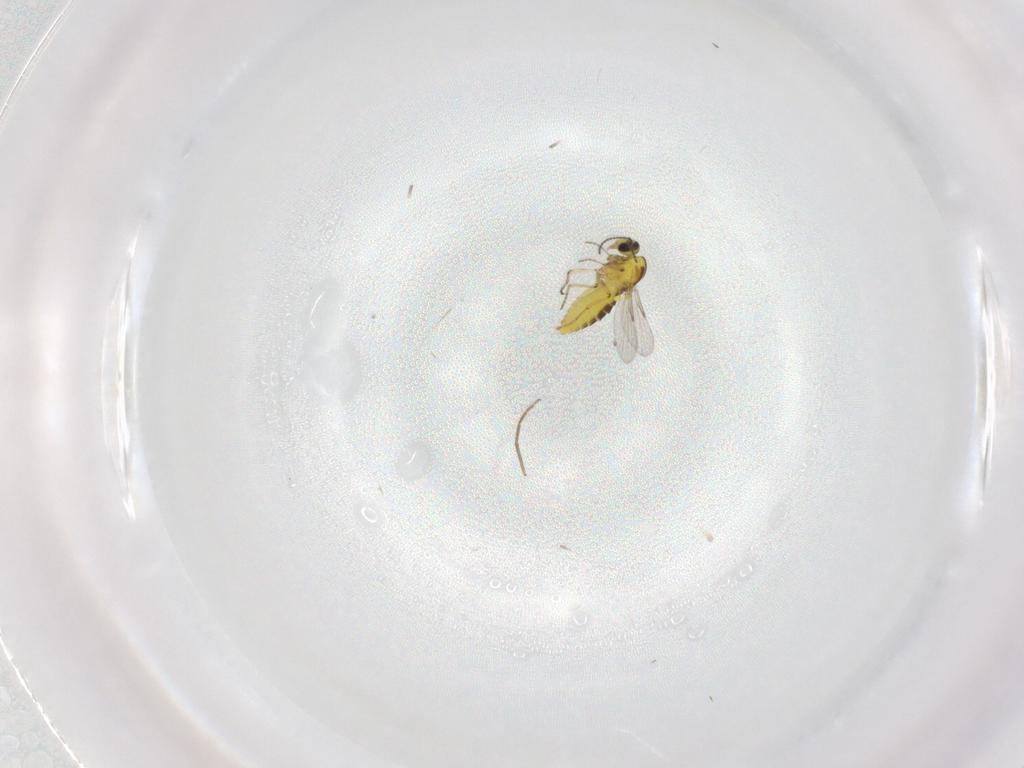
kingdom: Animalia
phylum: Arthropoda
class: Insecta
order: Diptera
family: Ceratopogonidae
